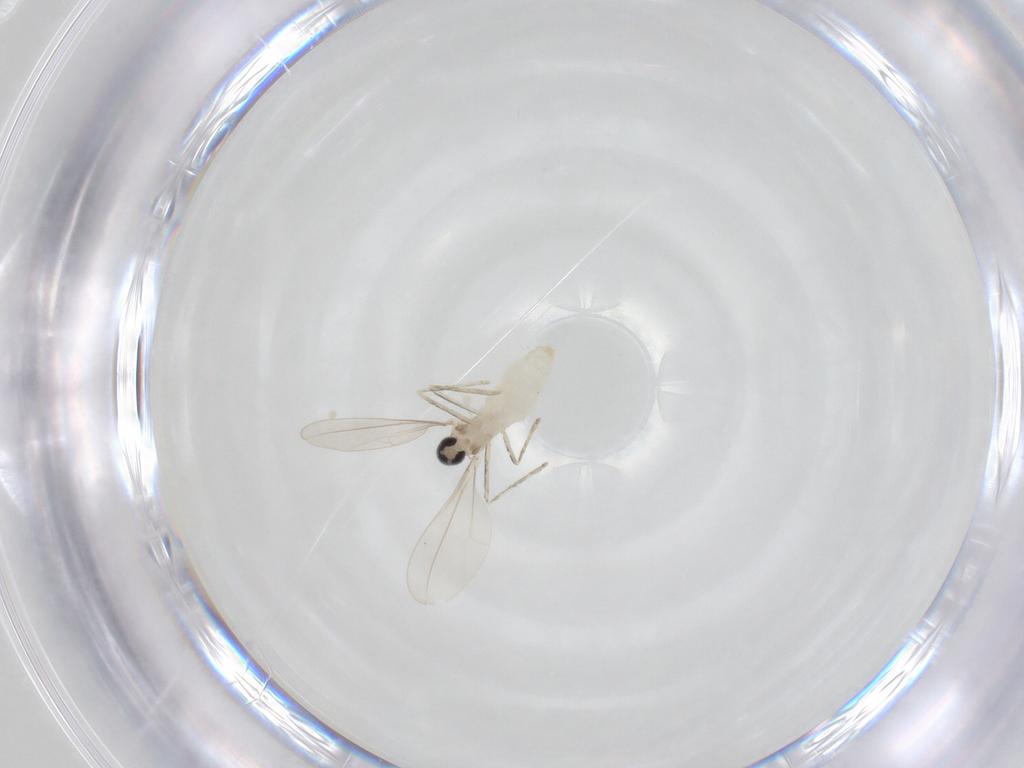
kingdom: Animalia
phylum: Arthropoda
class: Insecta
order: Diptera
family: Cecidomyiidae
